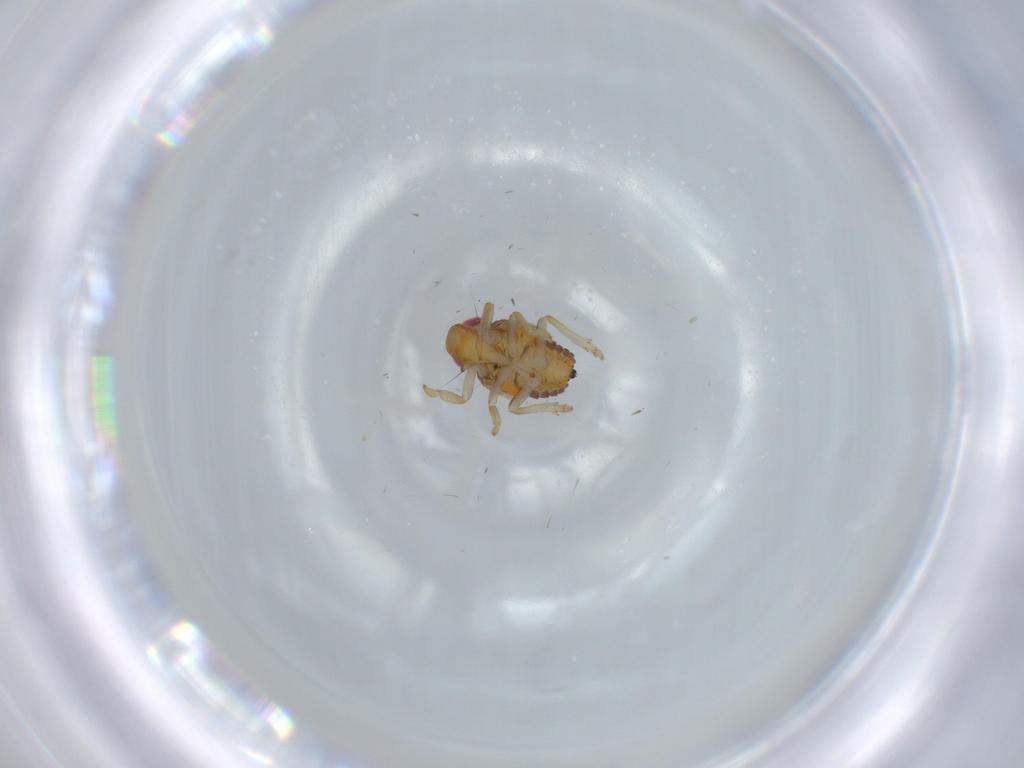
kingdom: Animalia
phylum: Arthropoda
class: Insecta
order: Hemiptera
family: Issidae
